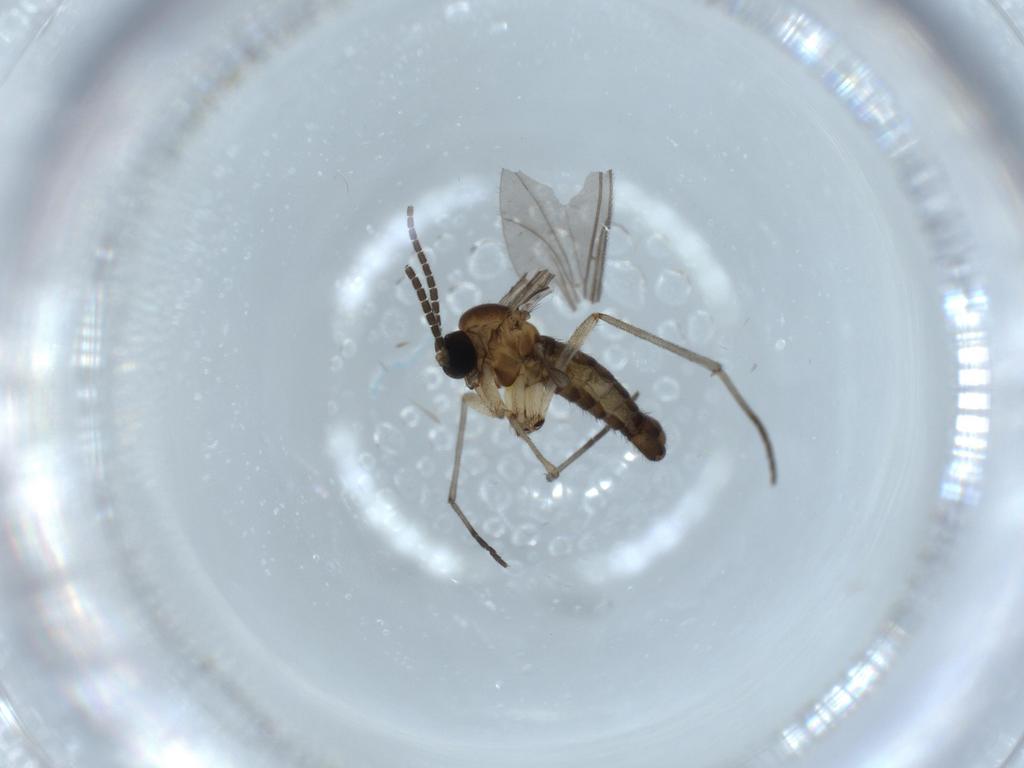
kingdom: Animalia
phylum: Arthropoda
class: Insecta
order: Diptera
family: Sciaridae
